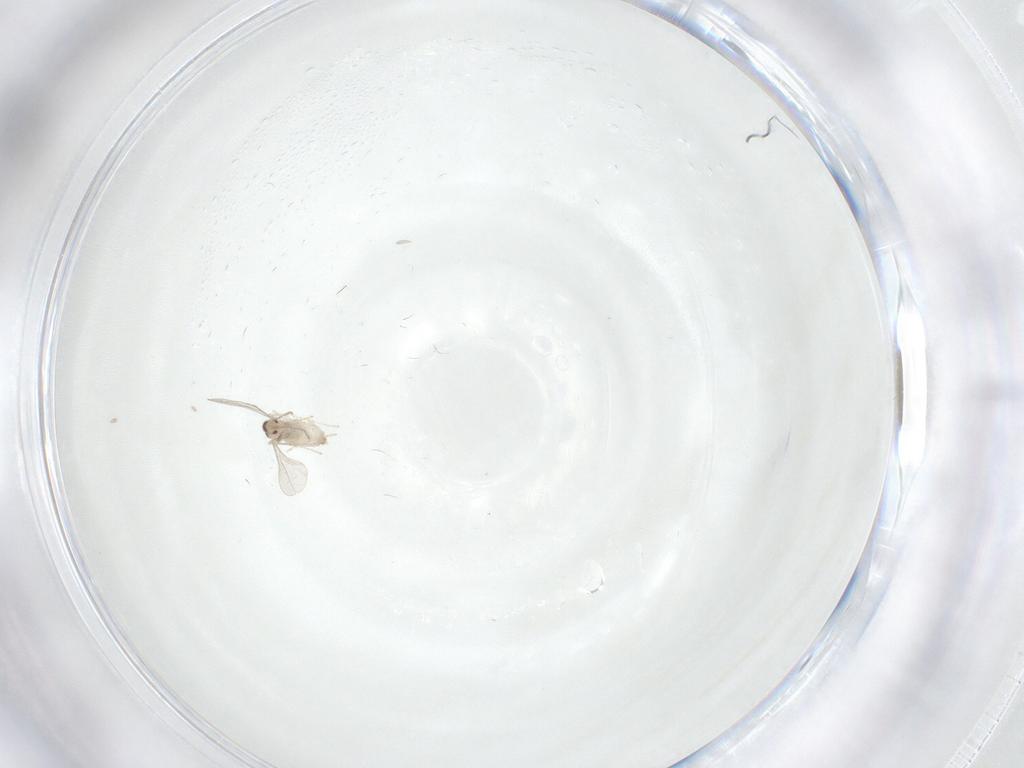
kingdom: Animalia
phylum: Arthropoda
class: Insecta
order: Diptera
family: Cecidomyiidae
